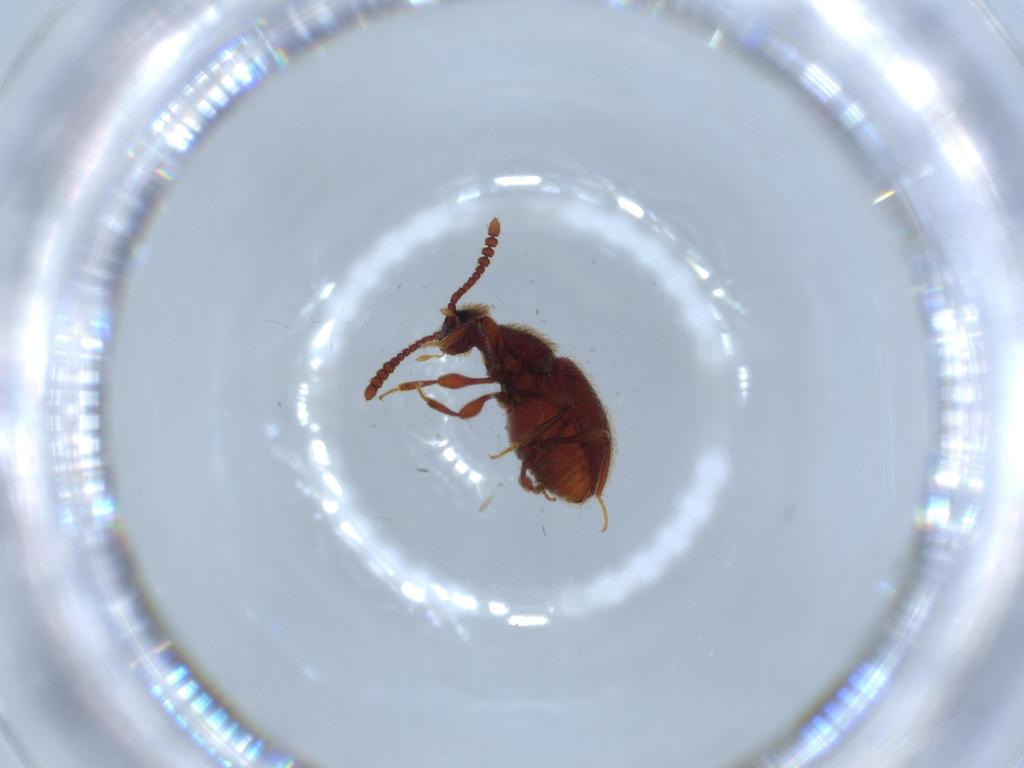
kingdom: Animalia
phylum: Arthropoda
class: Insecta
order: Coleoptera
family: Staphylinidae
